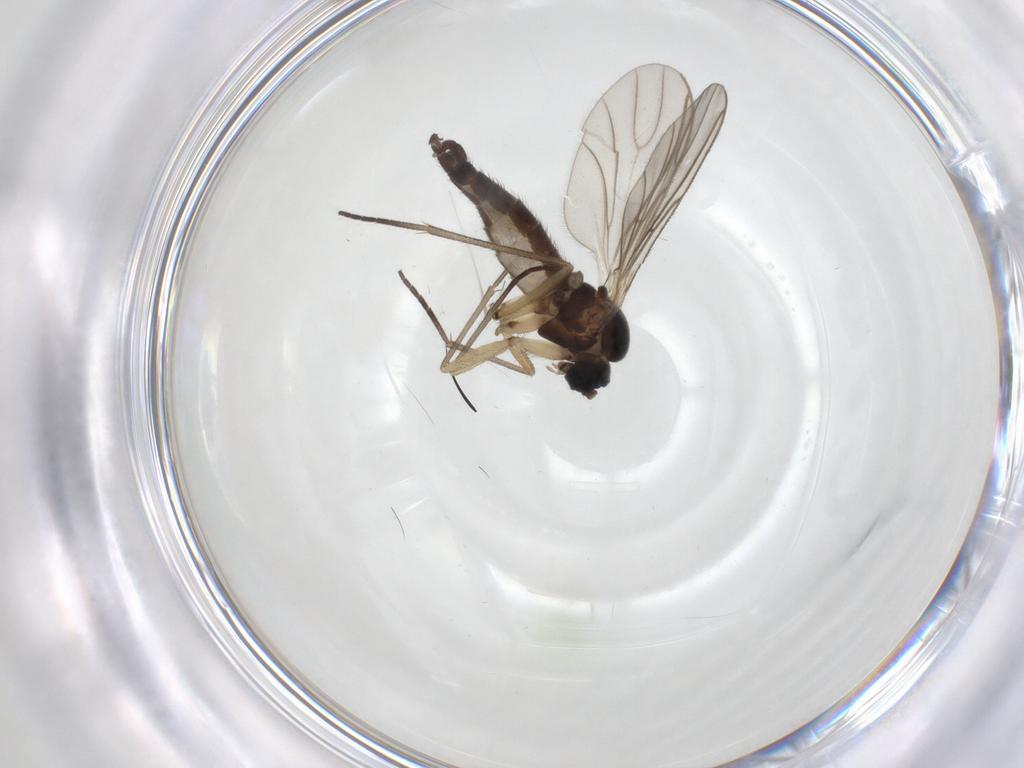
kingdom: Animalia
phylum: Arthropoda
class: Insecta
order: Diptera
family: Sciaridae
